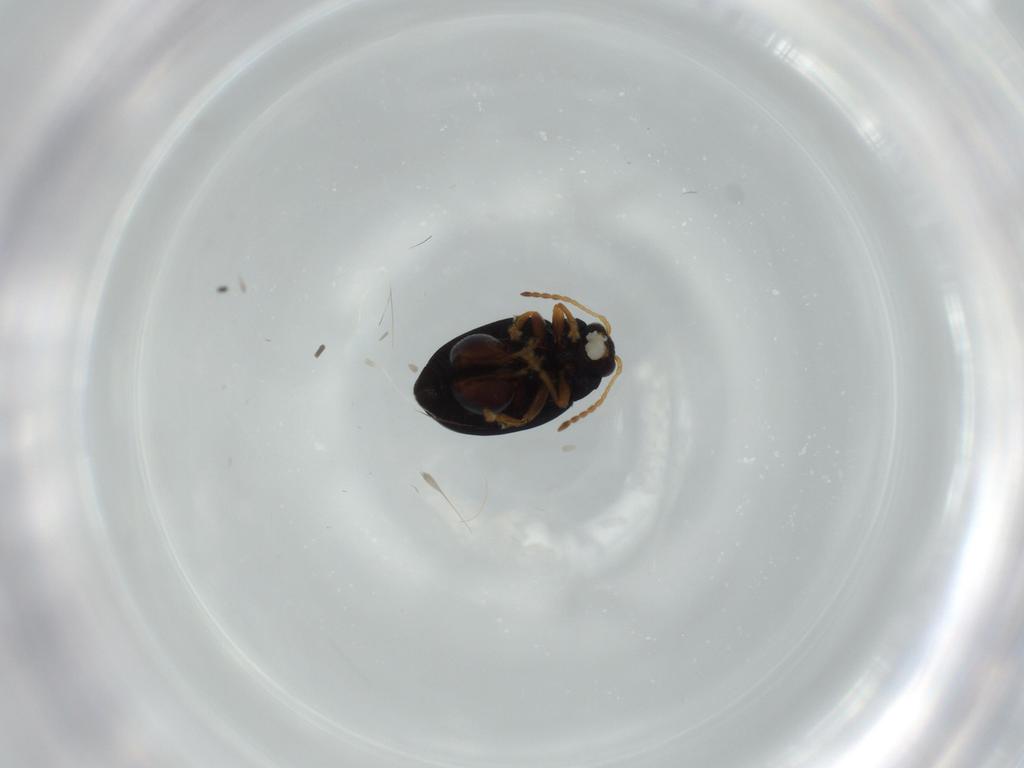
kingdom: Animalia
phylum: Arthropoda
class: Insecta
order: Coleoptera
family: Chrysomelidae
